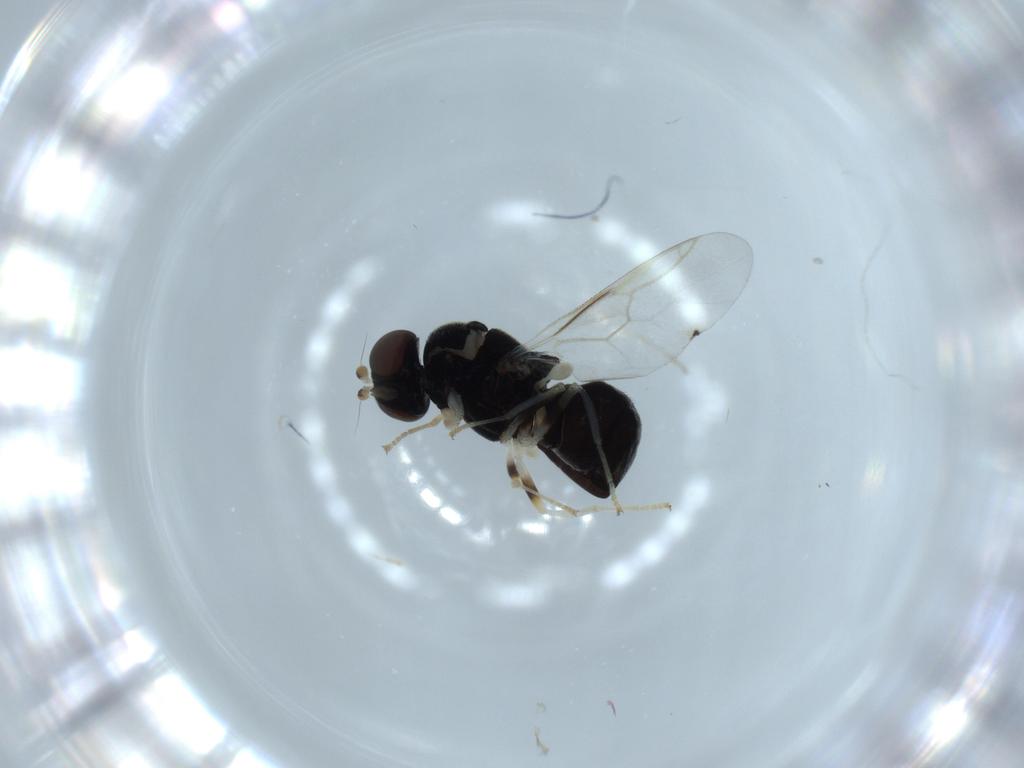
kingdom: Animalia
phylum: Arthropoda
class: Insecta
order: Diptera
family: Stratiomyidae
